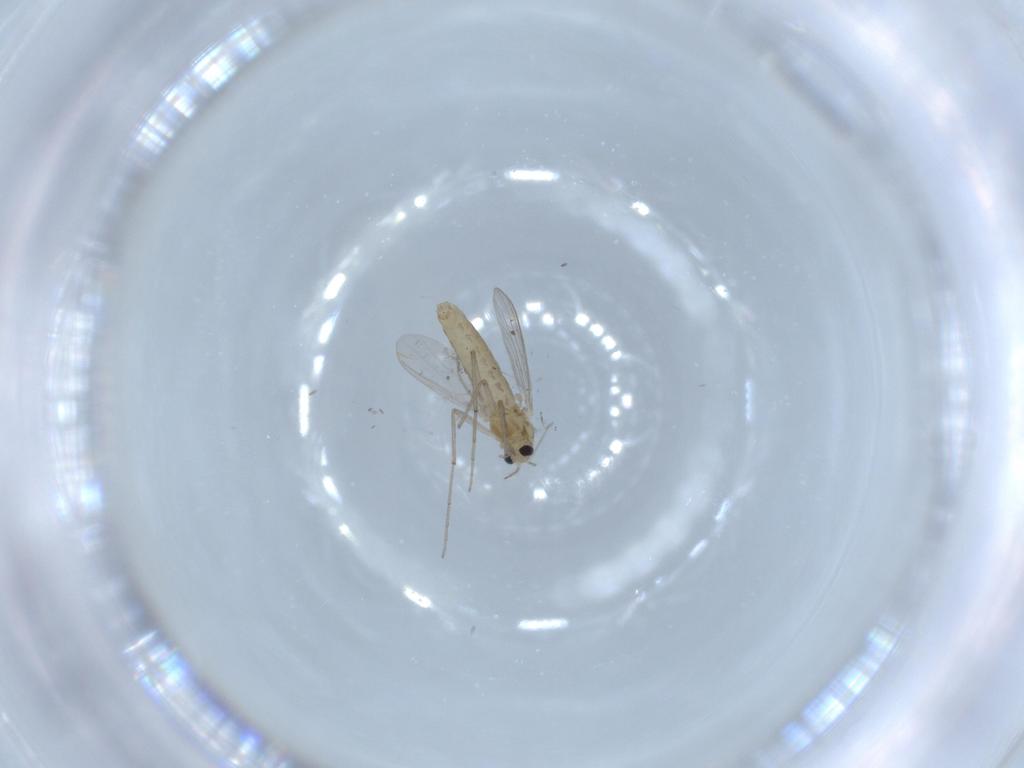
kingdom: Animalia
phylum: Arthropoda
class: Insecta
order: Diptera
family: Chironomidae
